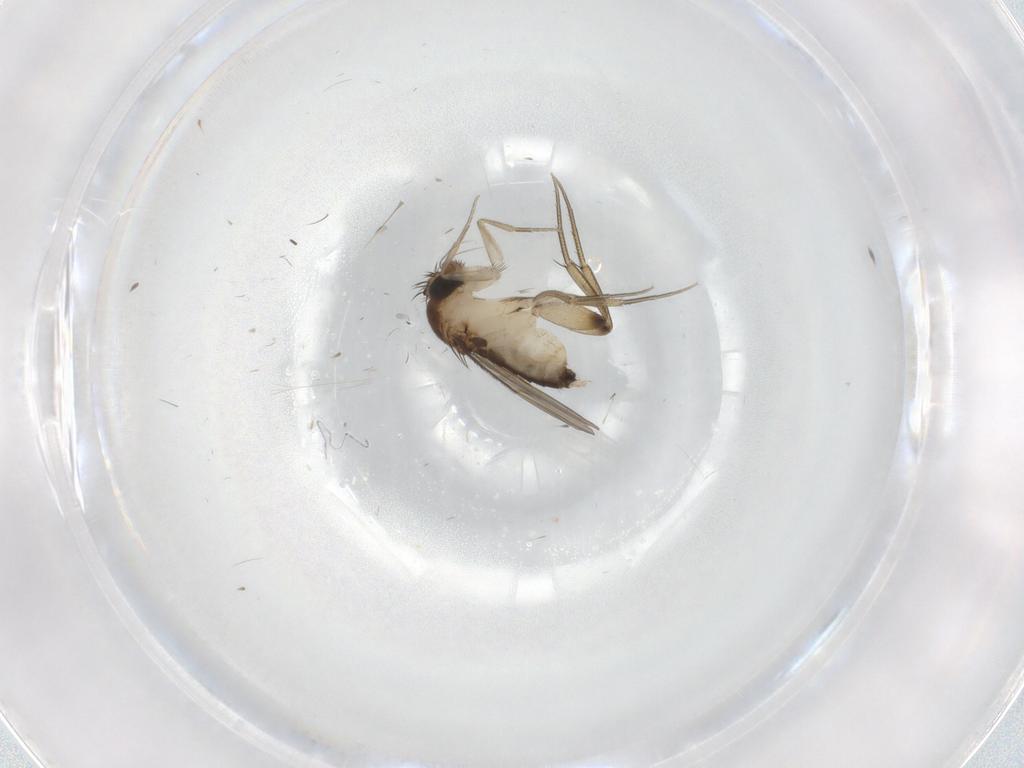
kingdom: Animalia
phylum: Arthropoda
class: Insecta
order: Diptera
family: Phoridae
